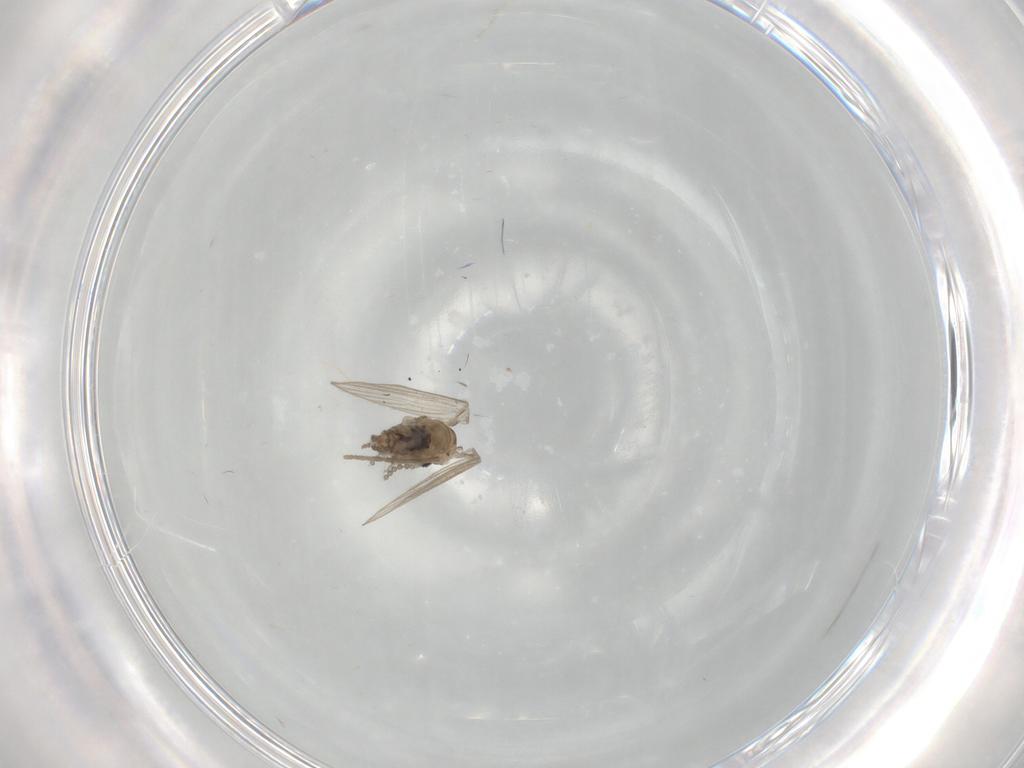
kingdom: Animalia
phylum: Arthropoda
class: Insecta
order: Diptera
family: Psychodidae
